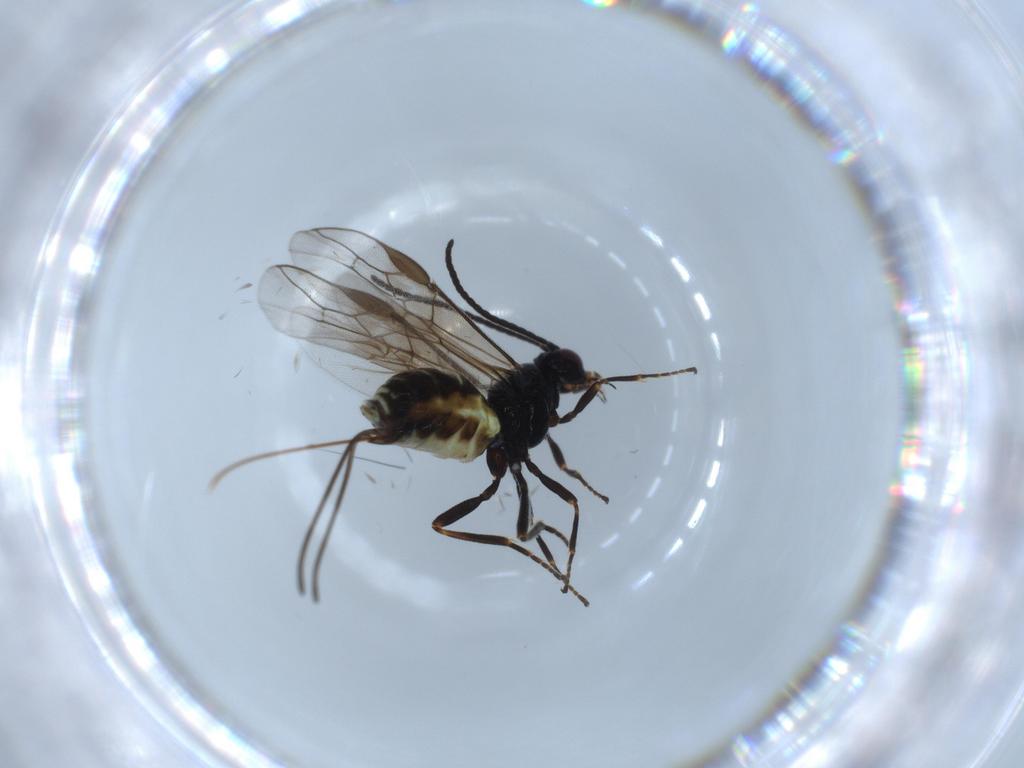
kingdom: Animalia
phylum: Arthropoda
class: Insecta
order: Hymenoptera
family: Braconidae
